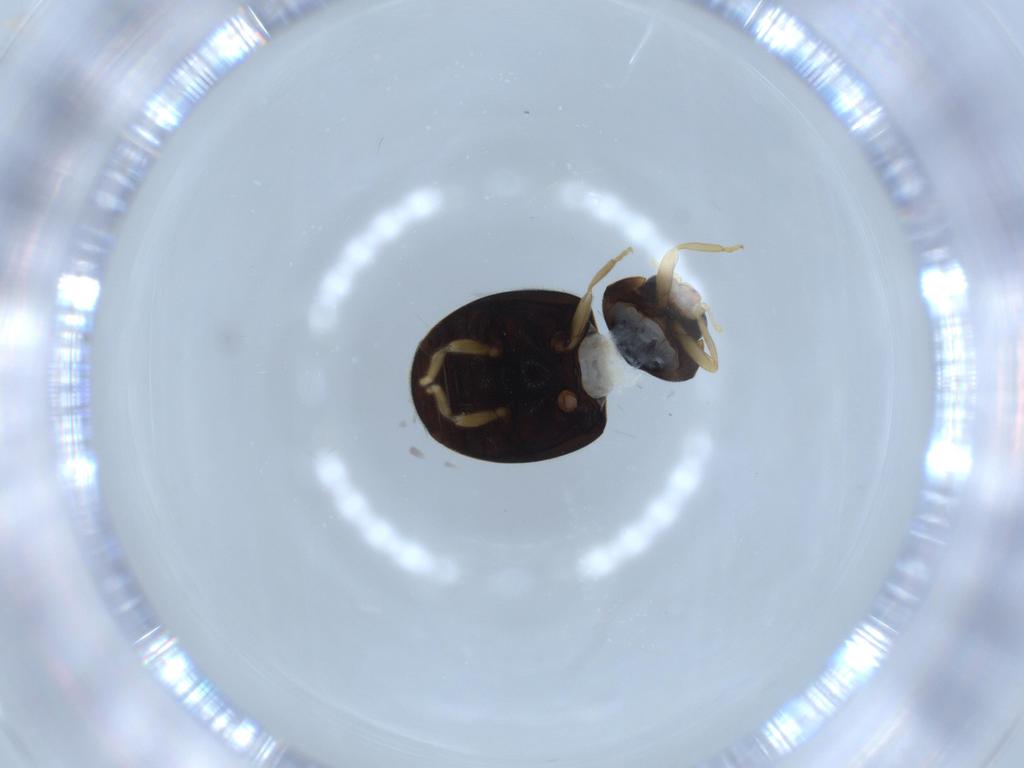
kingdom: Animalia
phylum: Arthropoda
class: Insecta
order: Coleoptera
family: Coccinellidae
